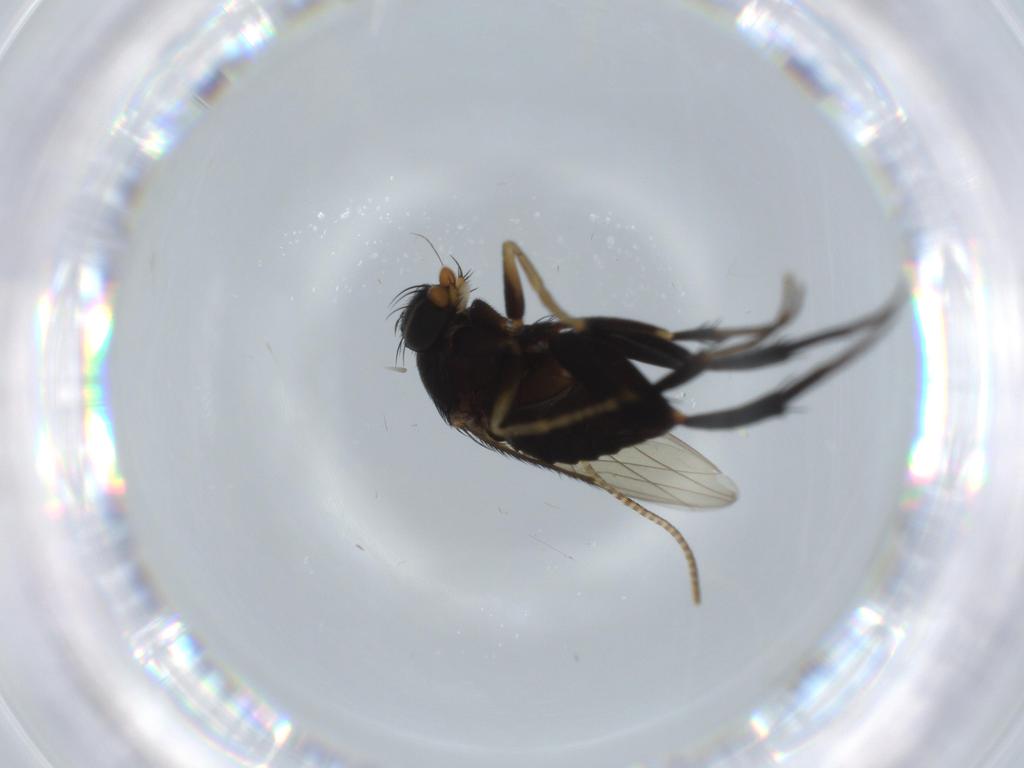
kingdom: Animalia
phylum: Arthropoda
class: Insecta
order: Diptera
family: Phoridae
